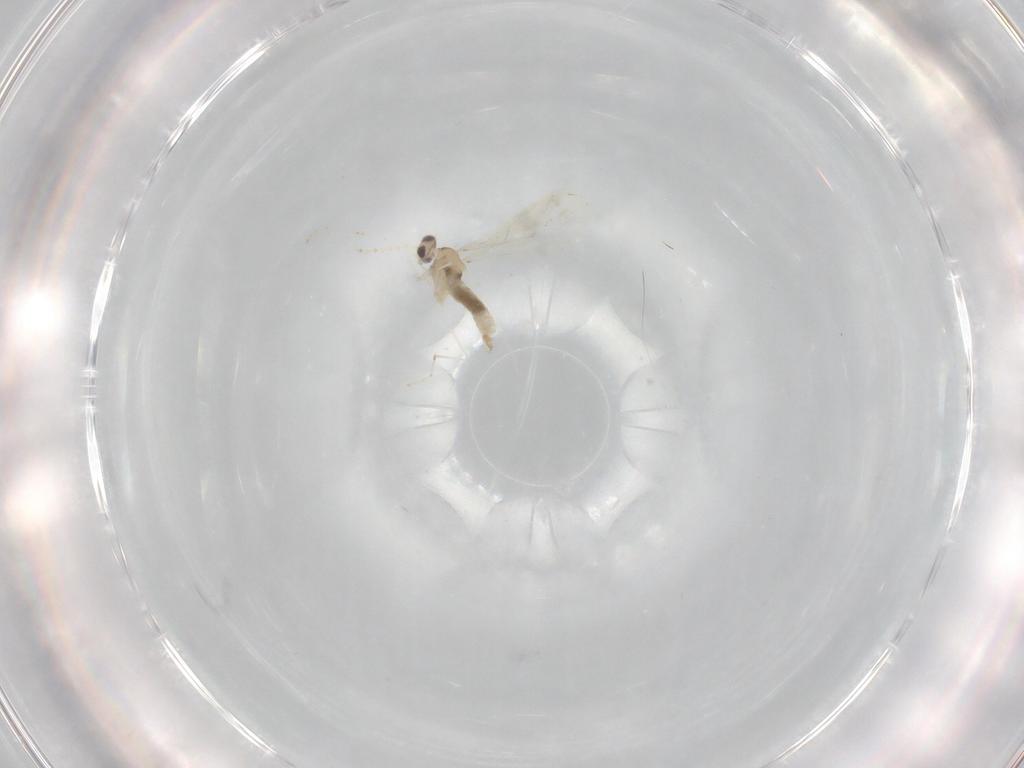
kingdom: Animalia
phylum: Arthropoda
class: Insecta
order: Diptera
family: Cecidomyiidae
